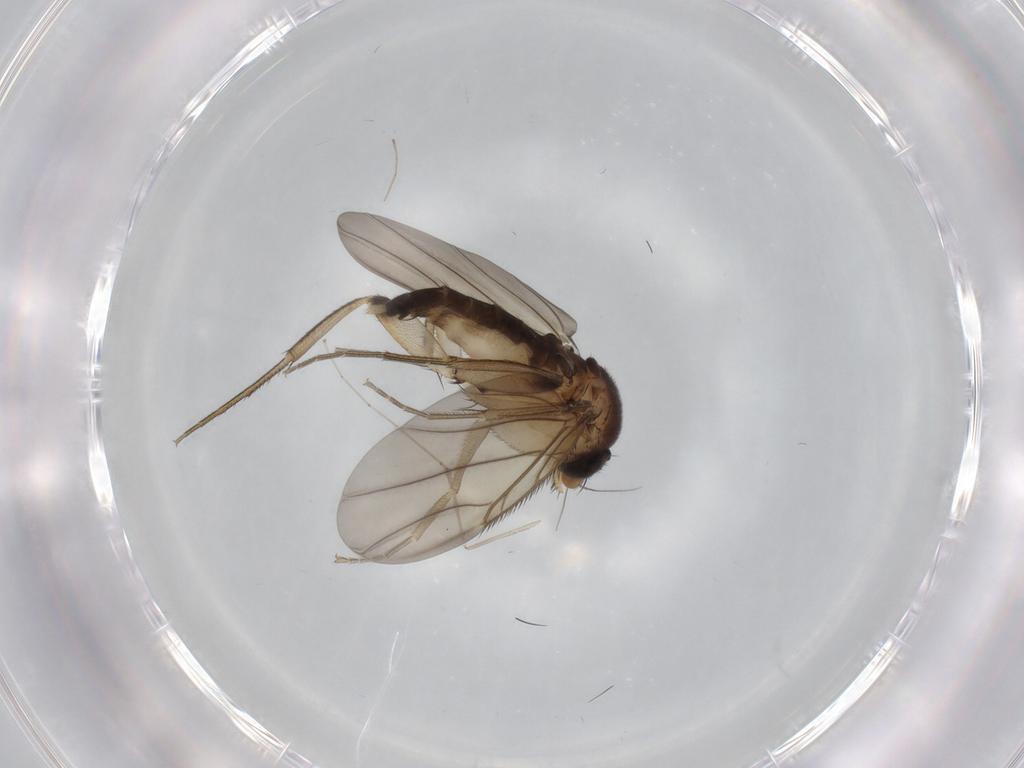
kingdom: Animalia
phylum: Arthropoda
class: Insecta
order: Diptera
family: Phoridae
